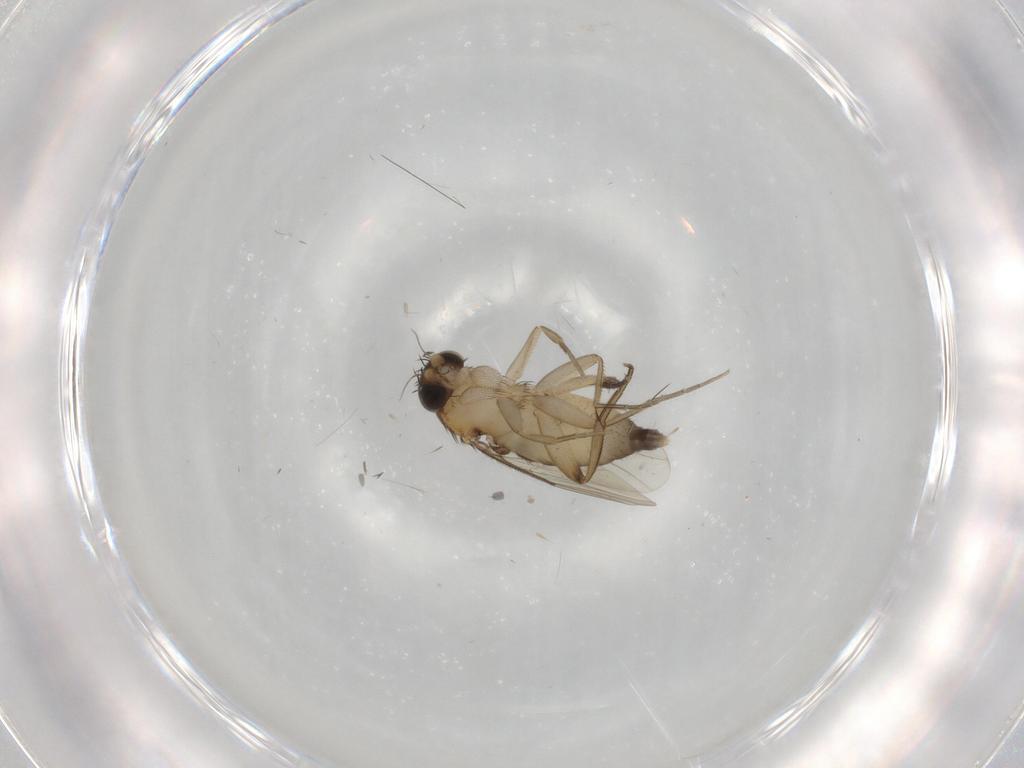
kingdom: Animalia
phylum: Arthropoda
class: Insecta
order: Diptera
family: Phoridae
